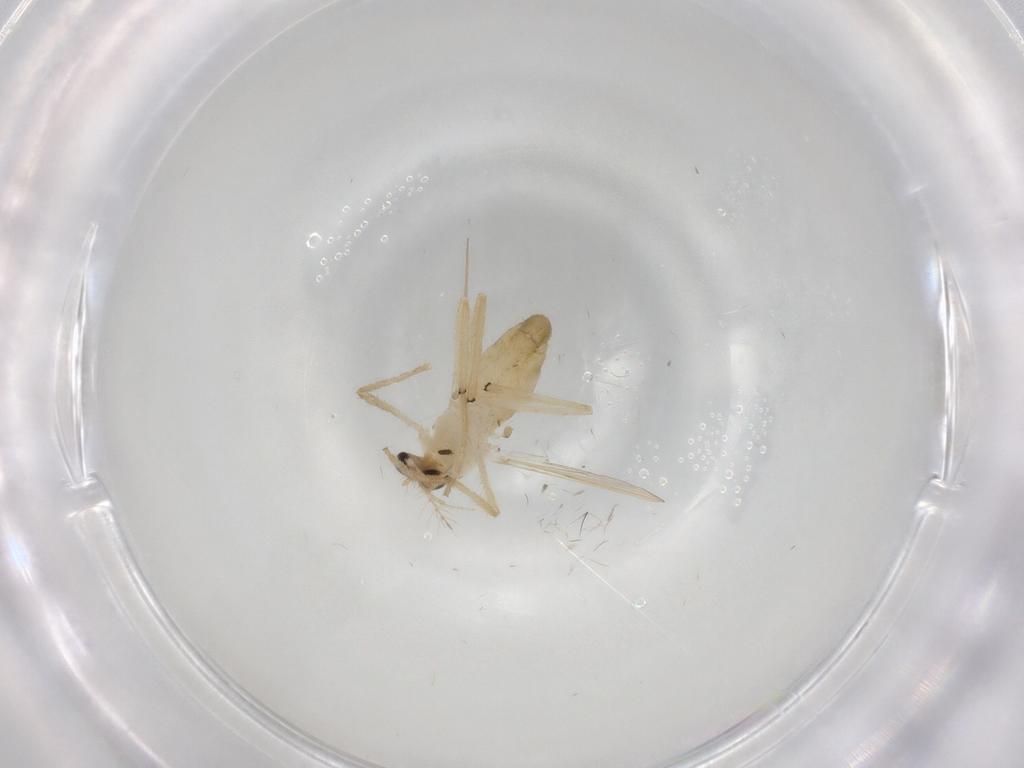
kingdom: Animalia
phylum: Arthropoda
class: Insecta
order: Diptera
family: Chironomidae
